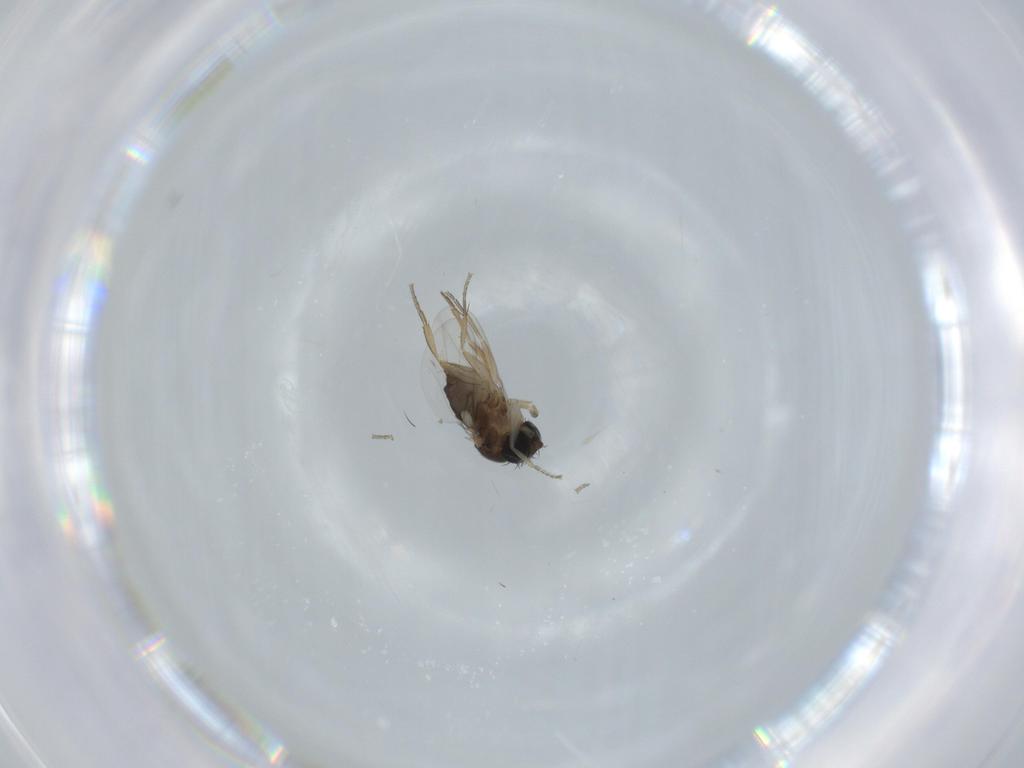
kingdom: Animalia
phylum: Arthropoda
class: Insecta
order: Diptera
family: Phoridae
